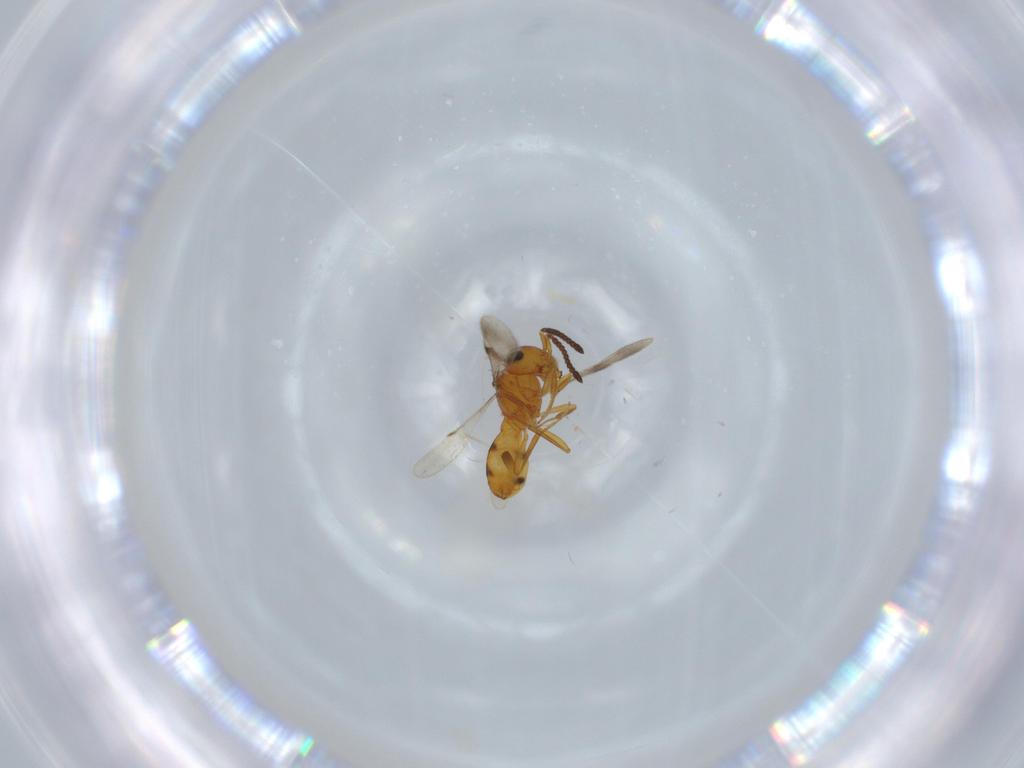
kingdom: Animalia
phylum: Arthropoda
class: Insecta
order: Hymenoptera
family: Scelionidae
